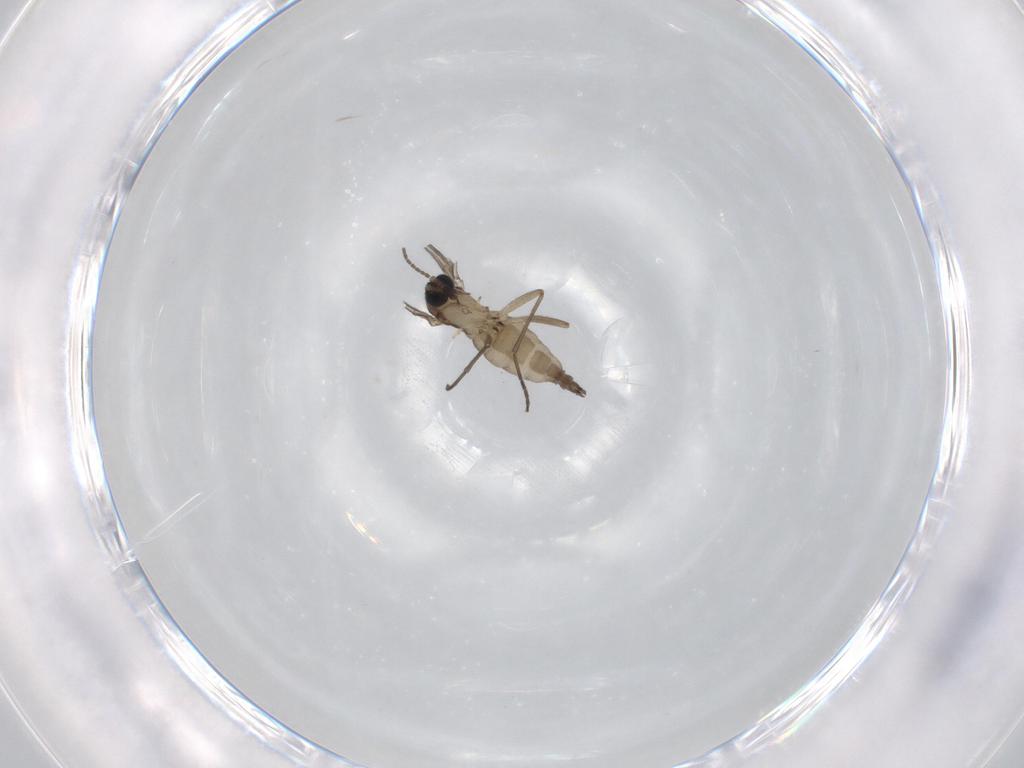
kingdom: Animalia
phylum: Arthropoda
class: Insecta
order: Diptera
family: Sciaridae
